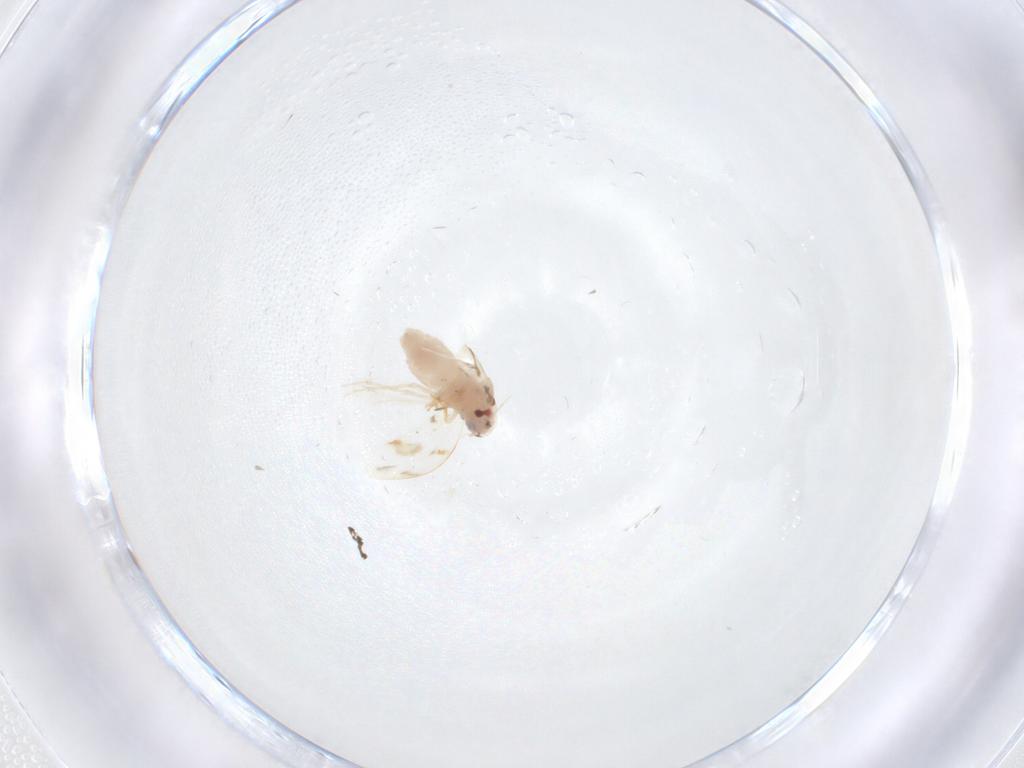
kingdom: Animalia
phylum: Arthropoda
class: Insecta
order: Hemiptera
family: Aleyrodidae
